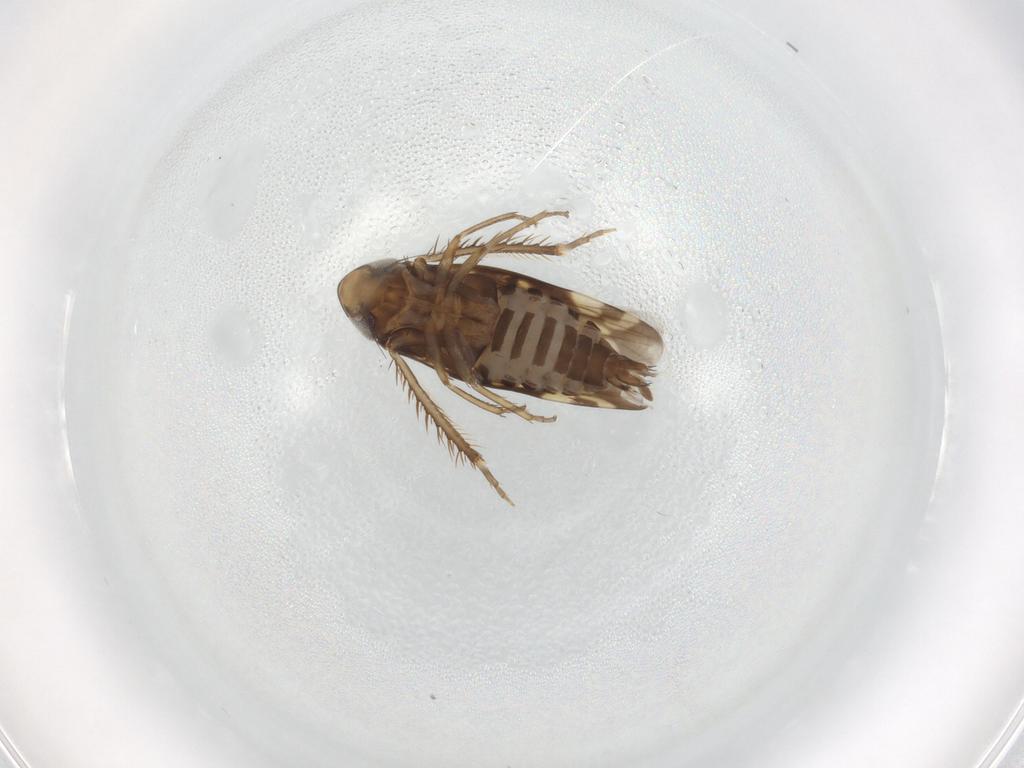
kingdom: Animalia
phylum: Arthropoda
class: Insecta
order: Hemiptera
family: Cicadellidae
